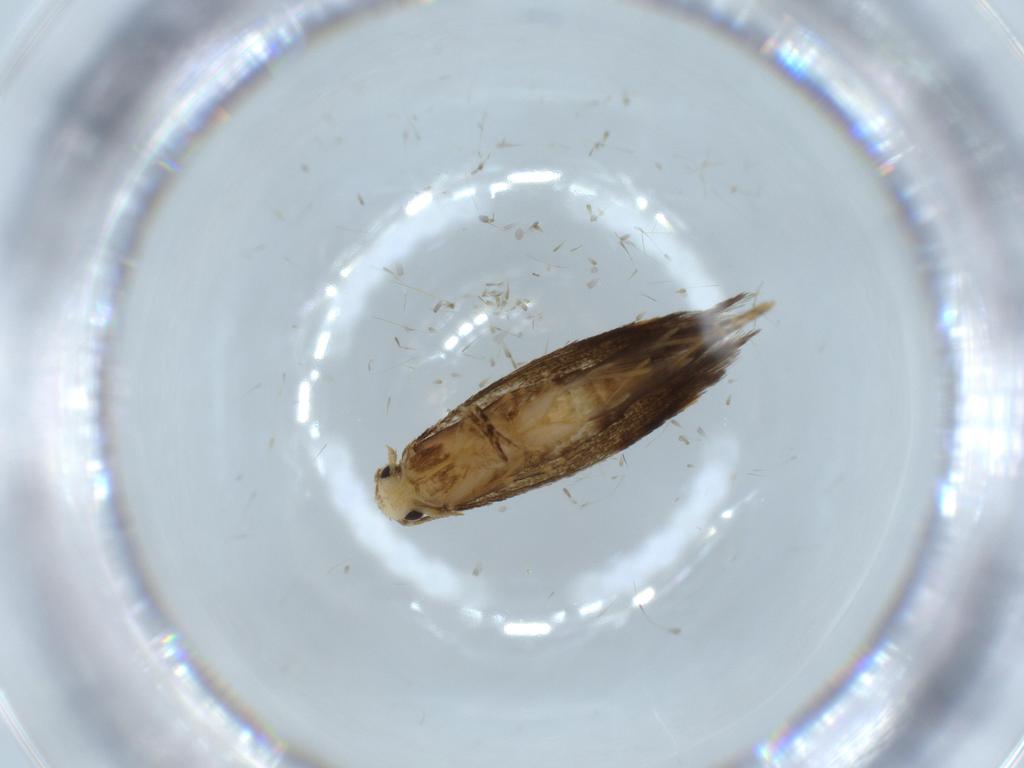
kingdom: Animalia
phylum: Arthropoda
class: Insecta
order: Lepidoptera
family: Tineidae
